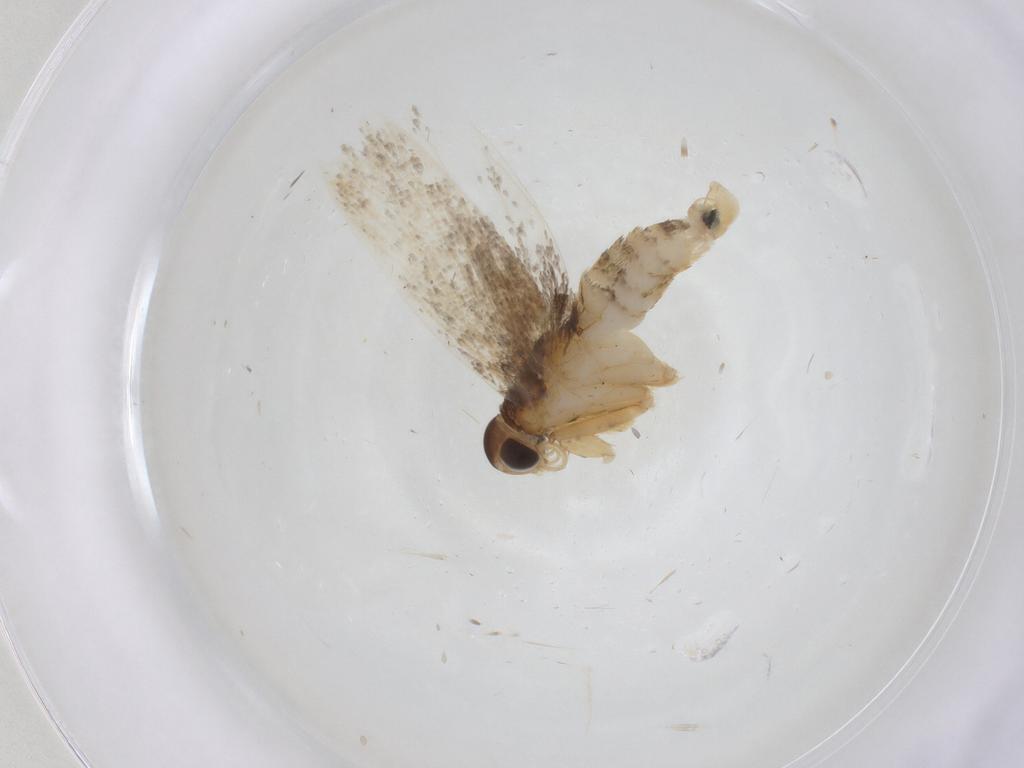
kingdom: Animalia
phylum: Arthropoda
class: Insecta
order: Lepidoptera
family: Oecophoridae
